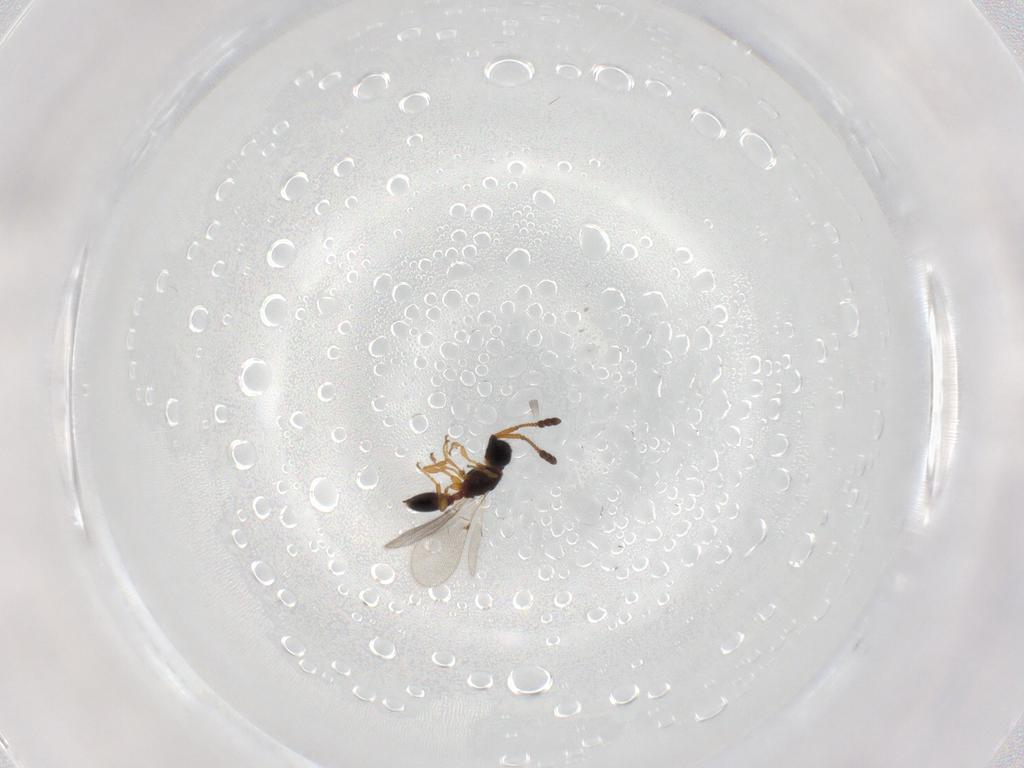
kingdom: Animalia
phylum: Arthropoda
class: Insecta
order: Hymenoptera
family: Diapriidae
